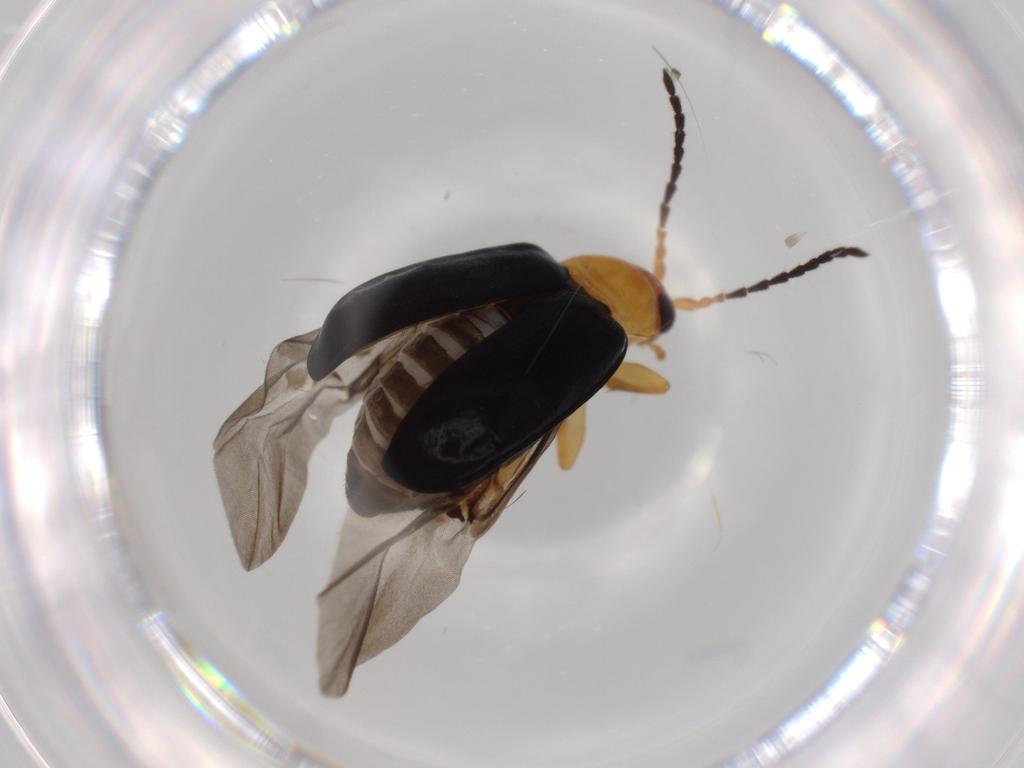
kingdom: Animalia
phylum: Arthropoda
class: Insecta
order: Coleoptera
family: Chrysomelidae
